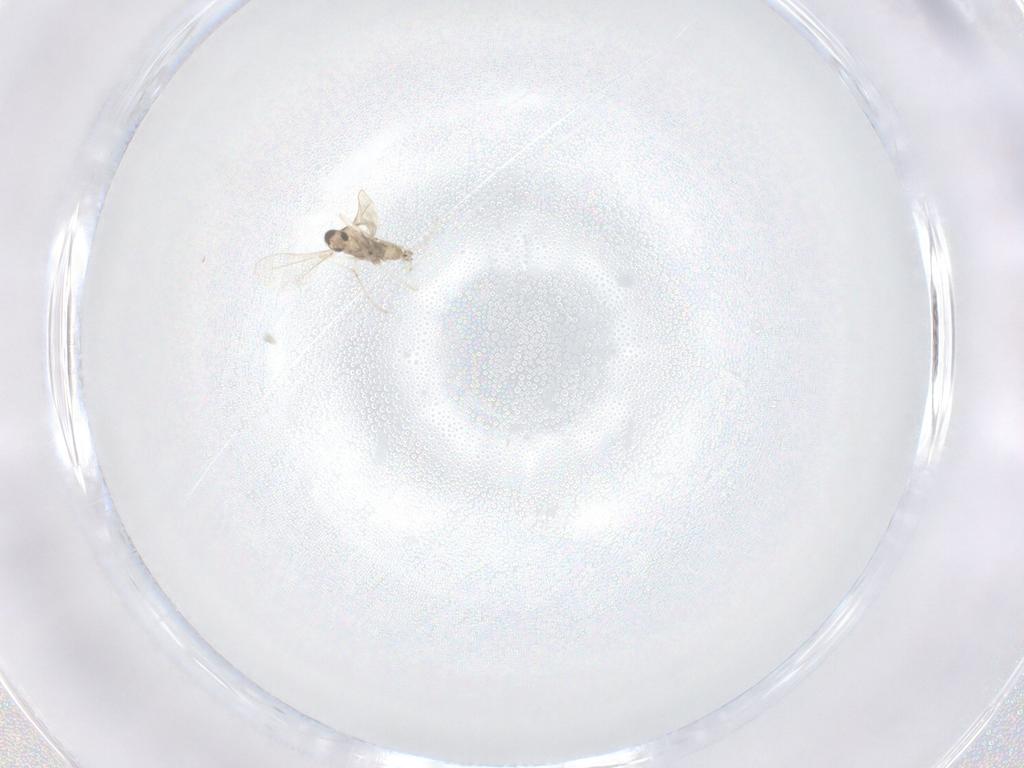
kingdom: Animalia
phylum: Arthropoda
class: Insecta
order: Diptera
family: Cecidomyiidae
